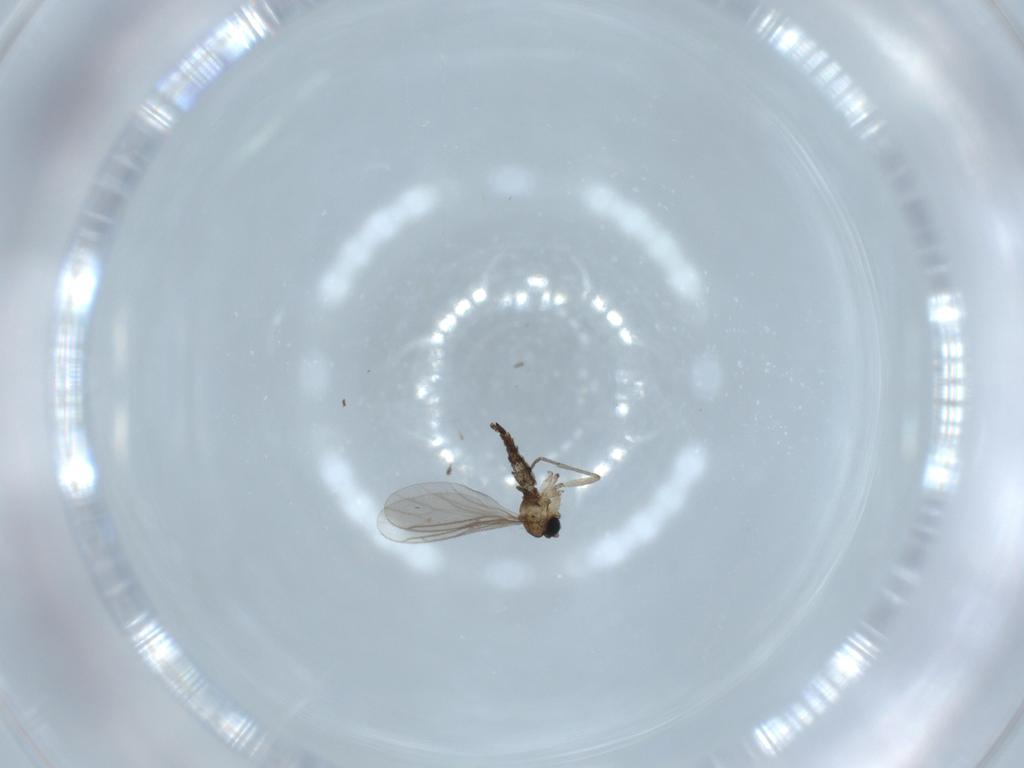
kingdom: Animalia
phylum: Arthropoda
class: Insecta
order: Diptera
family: Sciaridae
